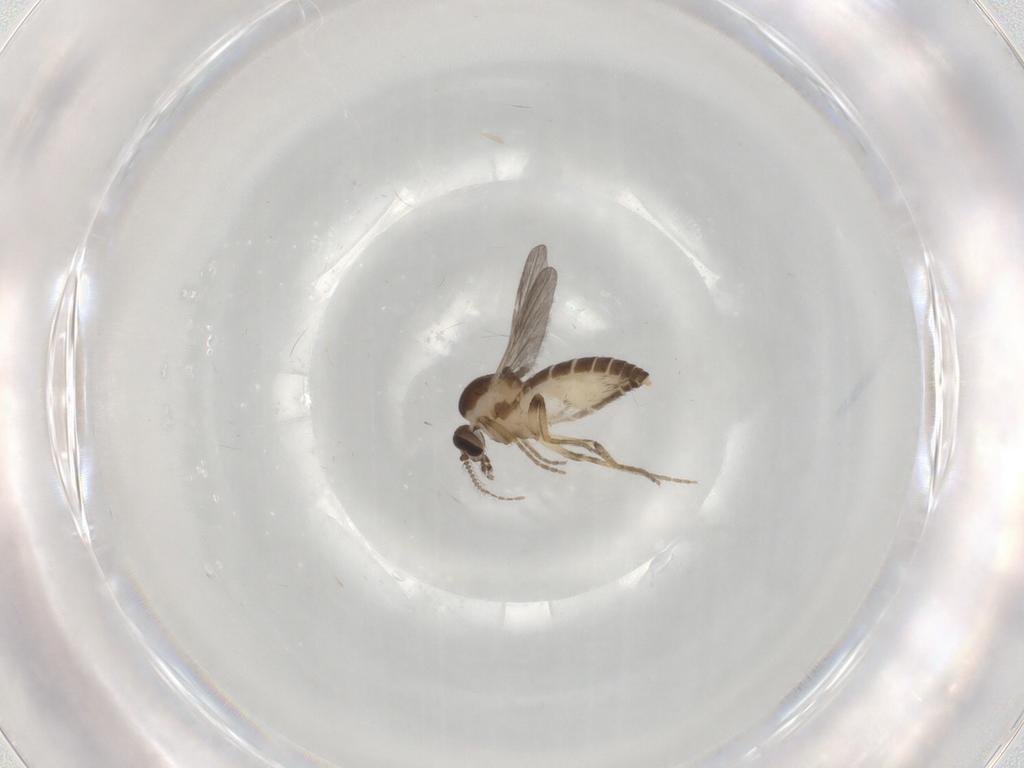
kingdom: Animalia
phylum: Arthropoda
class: Insecta
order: Diptera
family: Ceratopogonidae
